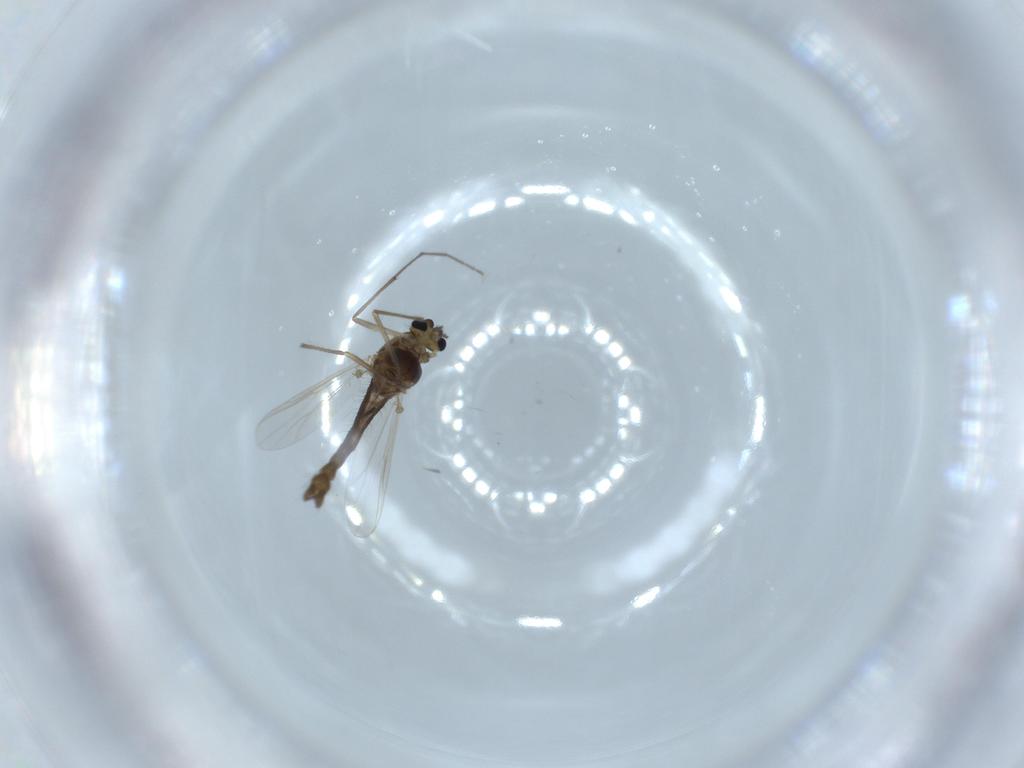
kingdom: Animalia
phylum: Arthropoda
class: Insecta
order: Diptera
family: Chironomidae
